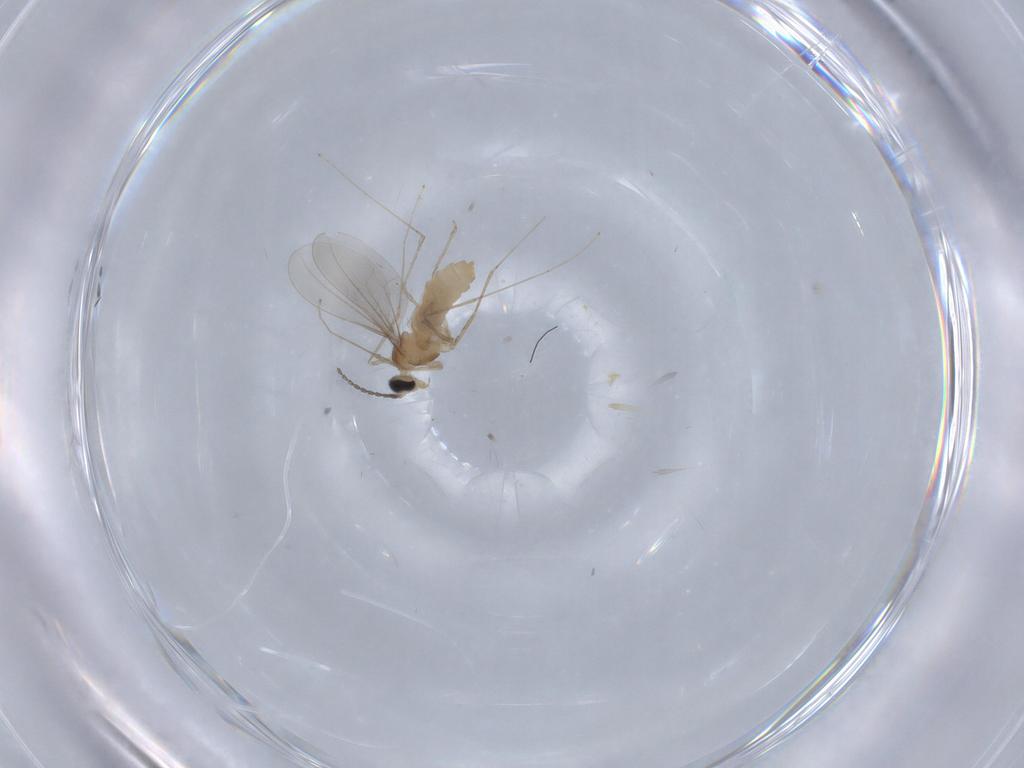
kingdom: Animalia
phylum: Arthropoda
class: Insecta
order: Diptera
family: Cecidomyiidae
